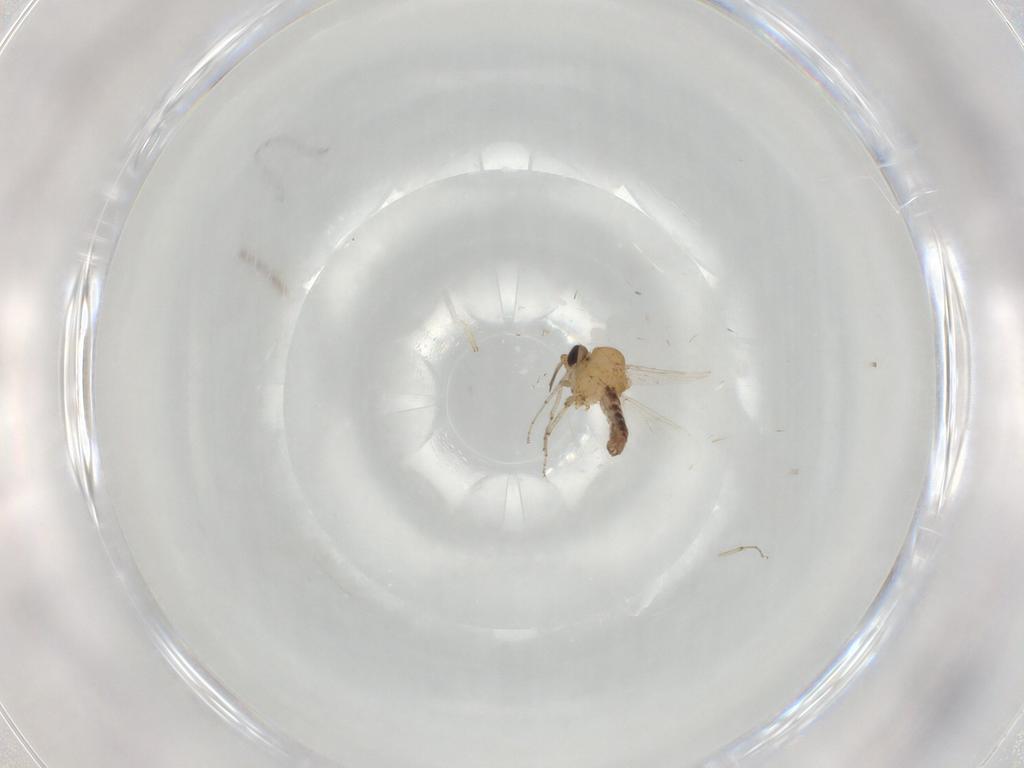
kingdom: Animalia
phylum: Arthropoda
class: Insecta
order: Diptera
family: Ceratopogonidae
